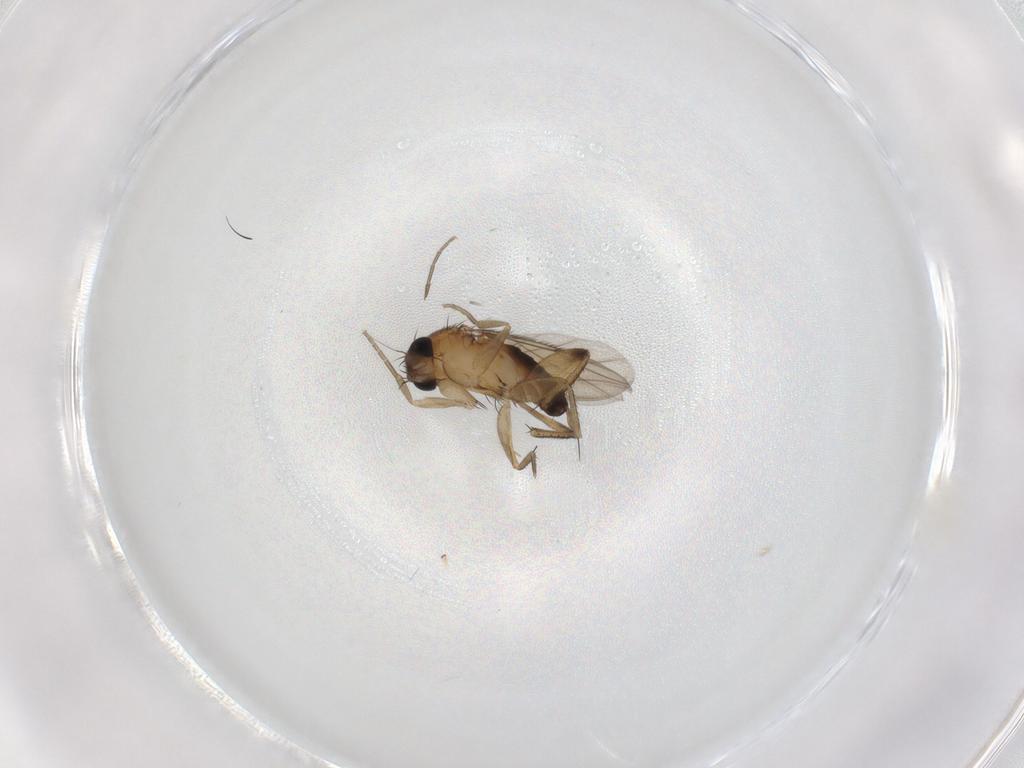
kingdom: Animalia
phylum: Arthropoda
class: Insecta
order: Diptera
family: Phoridae
